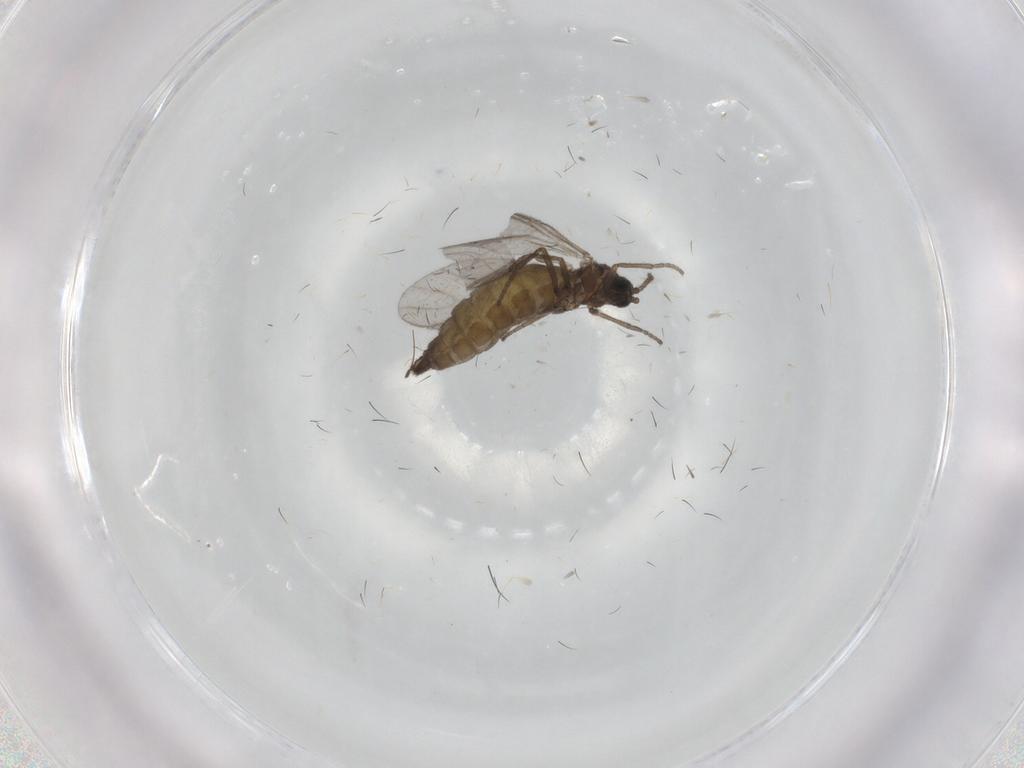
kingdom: Animalia
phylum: Arthropoda
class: Insecta
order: Diptera
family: Sciaridae
